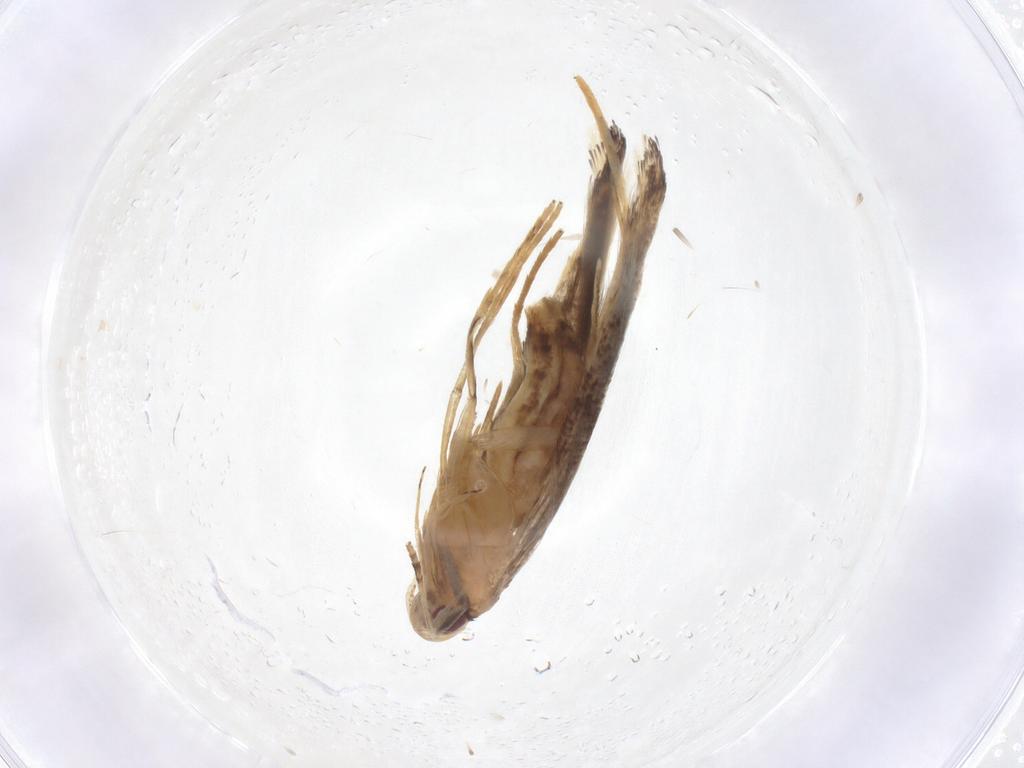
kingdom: Animalia
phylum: Arthropoda
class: Insecta
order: Lepidoptera
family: Cosmopterigidae
